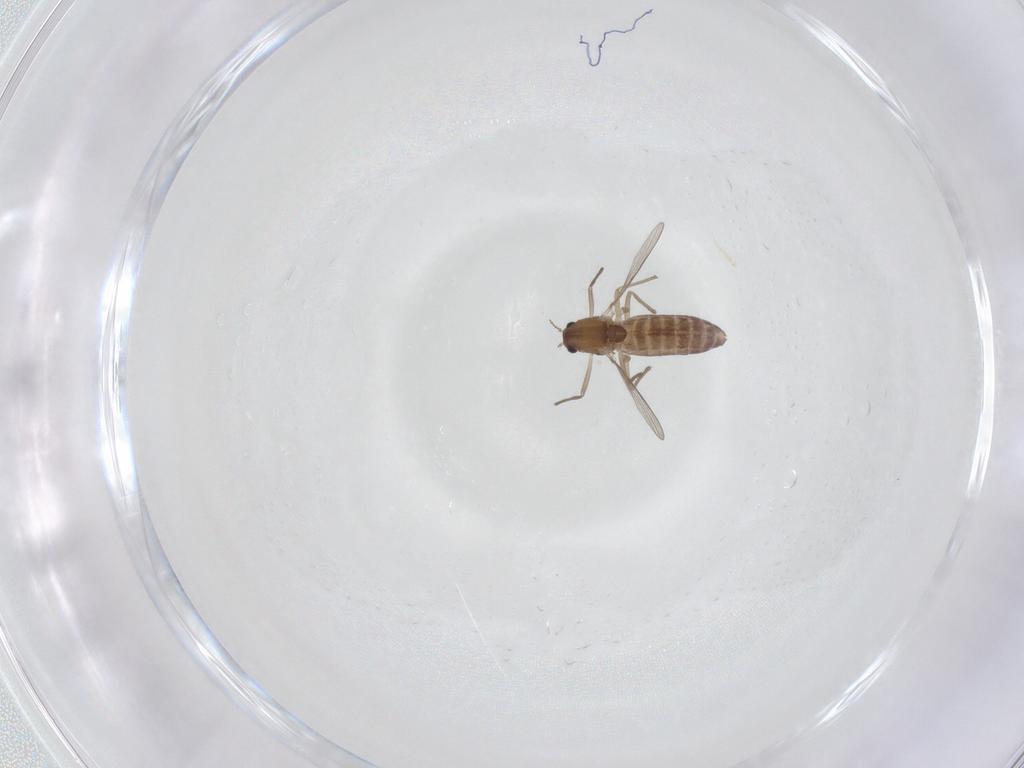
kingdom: Animalia
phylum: Arthropoda
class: Insecta
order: Diptera
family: Chironomidae
